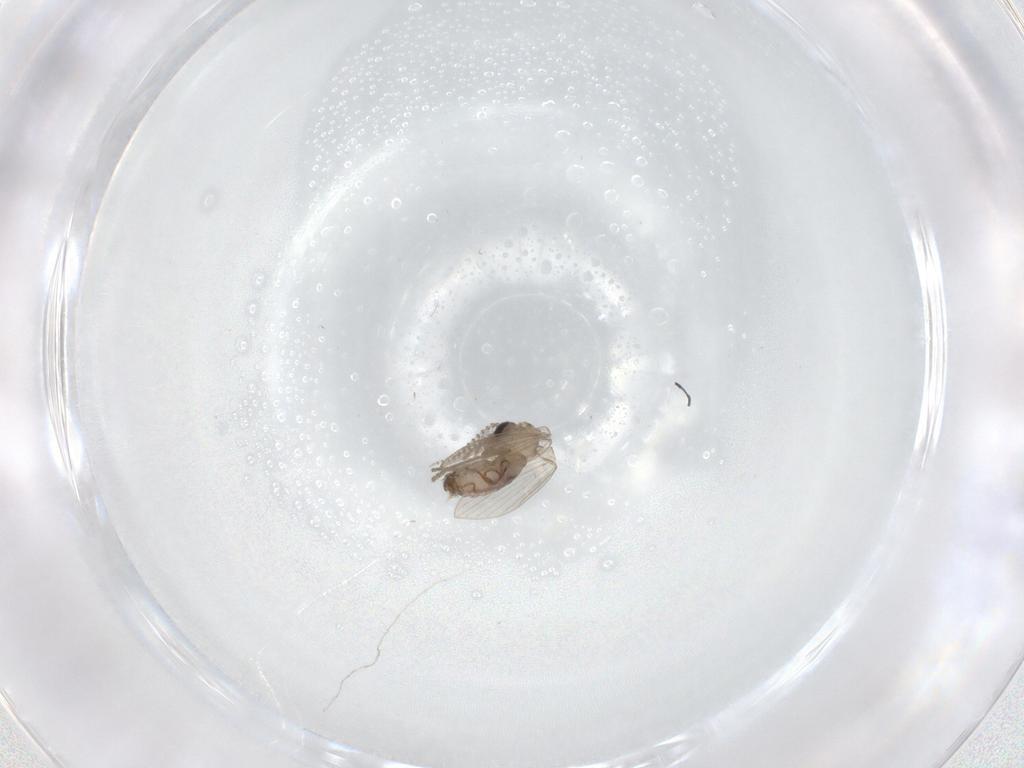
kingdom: Animalia
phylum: Arthropoda
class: Insecta
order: Diptera
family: Psychodidae
